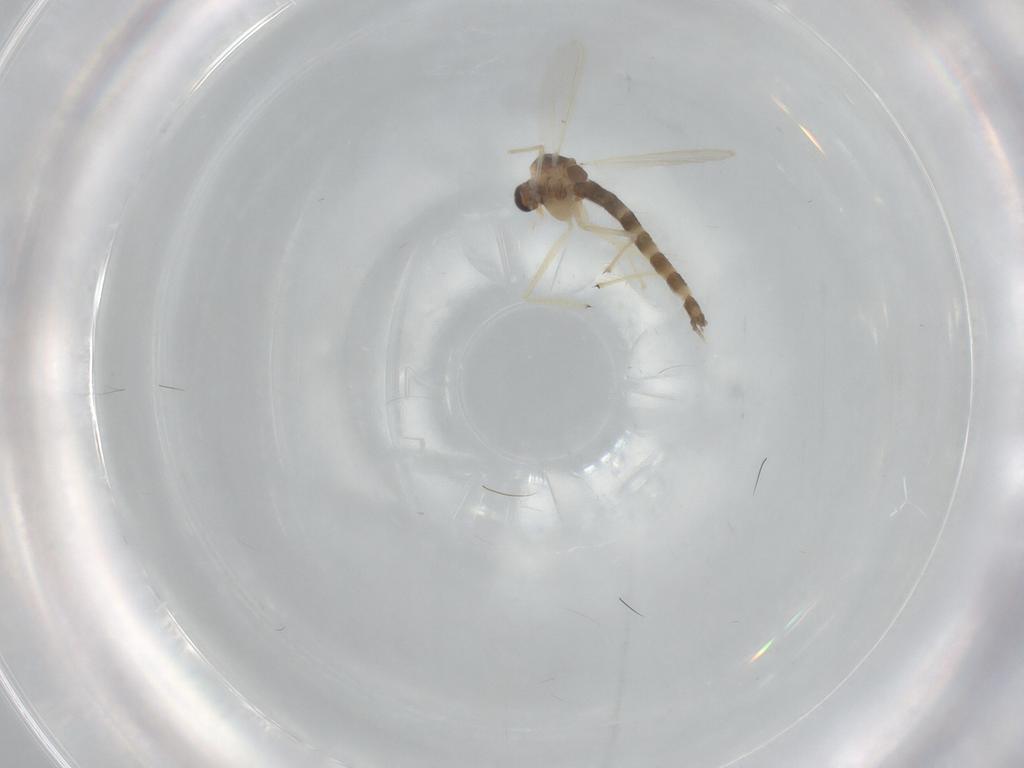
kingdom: Animalia
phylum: Arthropoda
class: Insecta
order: Diptera
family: Chironomidae
